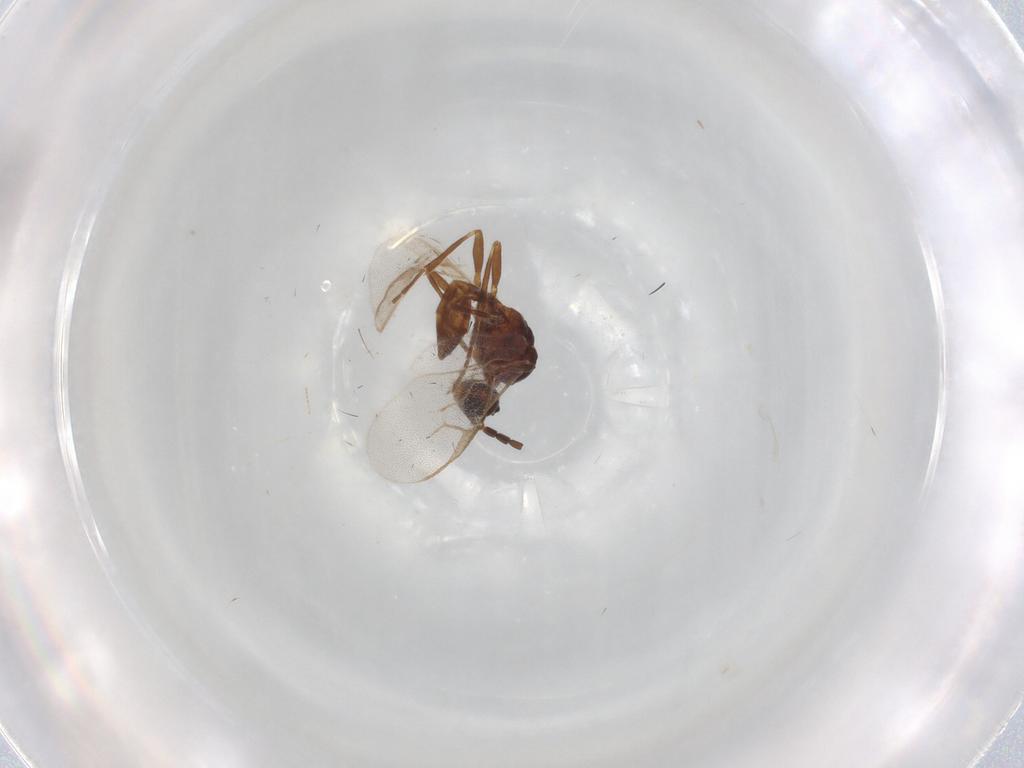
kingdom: Animalia
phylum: Arthropoda
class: Insecta
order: Hymenoptera
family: Braconidae
